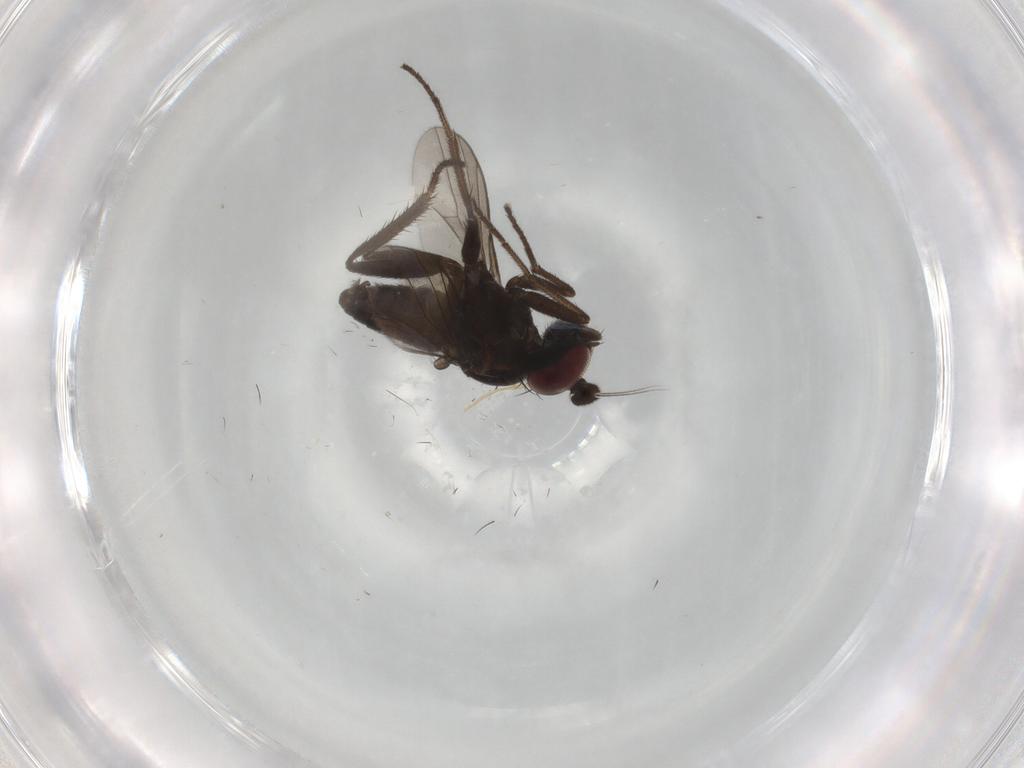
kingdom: Animalia
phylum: Arthropoda
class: Insecta
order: Diptera
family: Dolichopodidae
